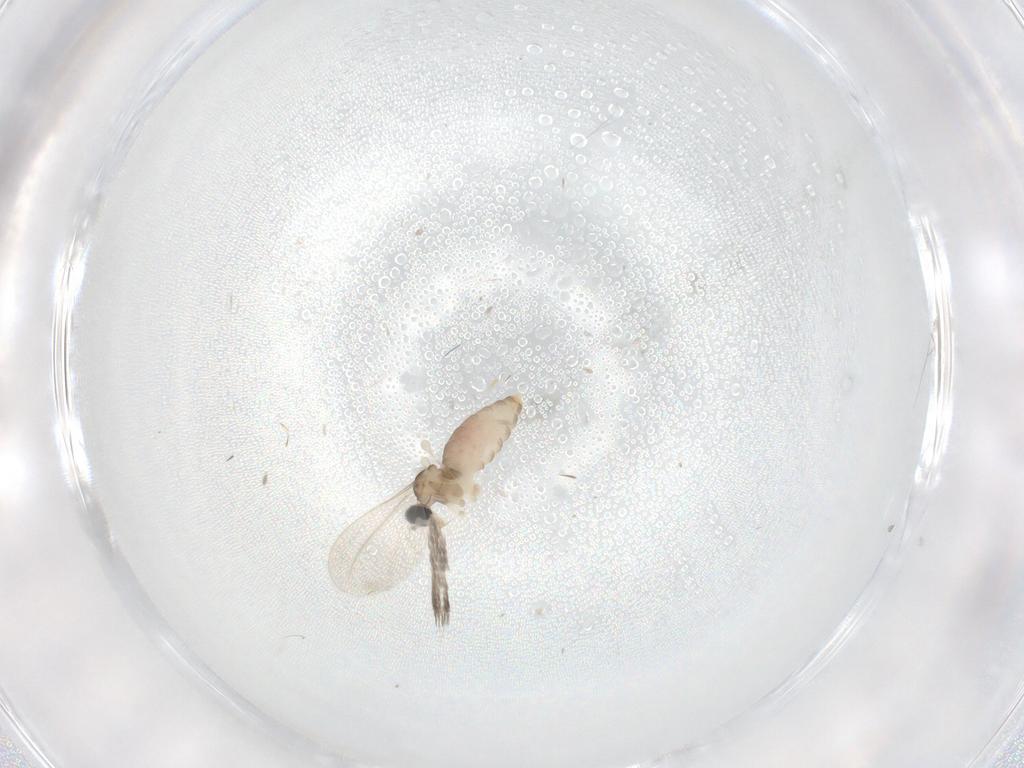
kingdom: Animalia
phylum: Arthropoda
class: Insecta
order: Diptera
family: Cecidomyiidae
